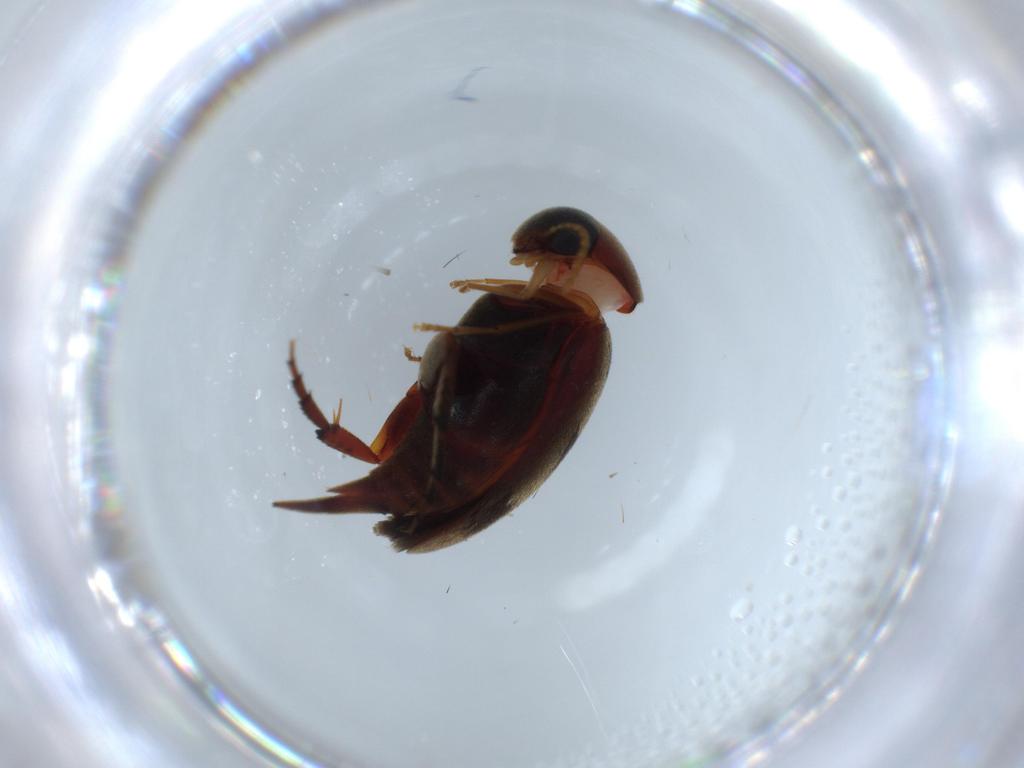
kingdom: Animalia
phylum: Arthropoda
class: Insecta
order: Coleoptera
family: Mordellidae
